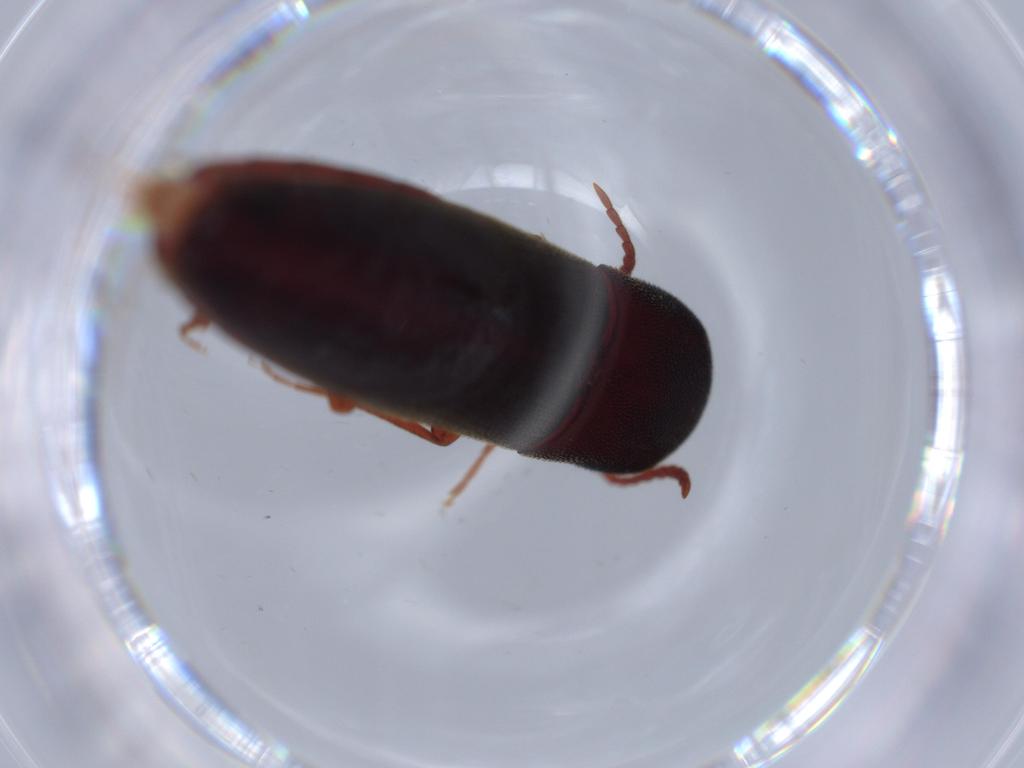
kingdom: Animalia
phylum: Arthropoda
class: Insecta
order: Coleoptera
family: Eucnemidae
